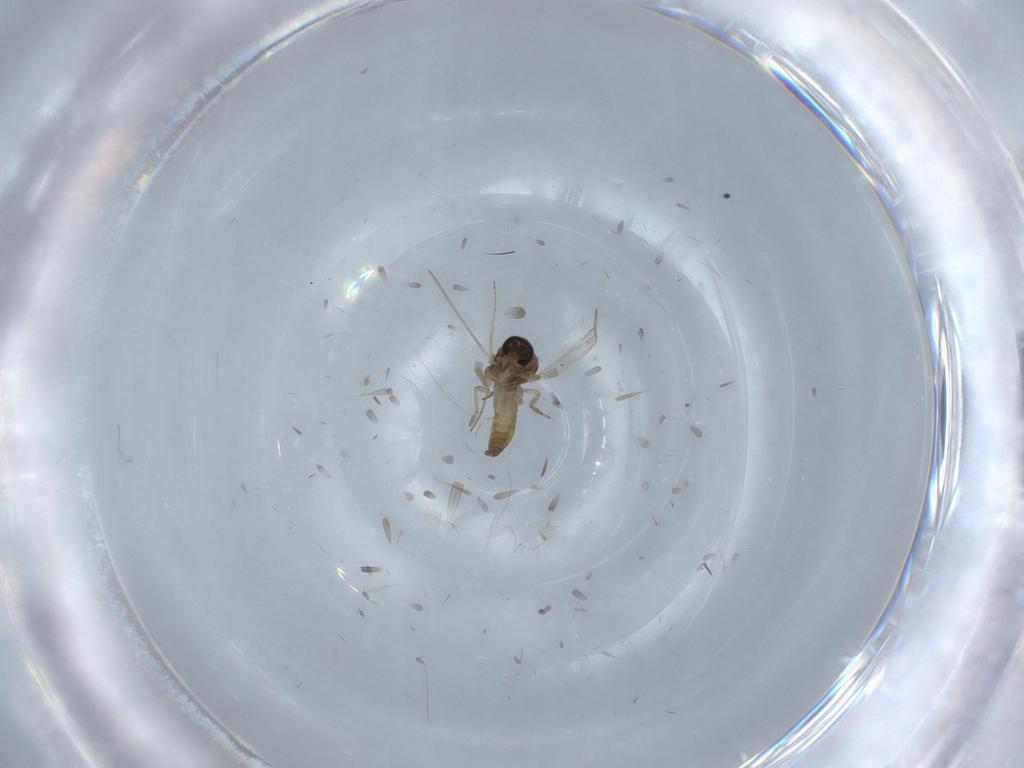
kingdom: Animalia
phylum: Arthropoda
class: Insecta
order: Diptera
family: Ceratopogonidae
